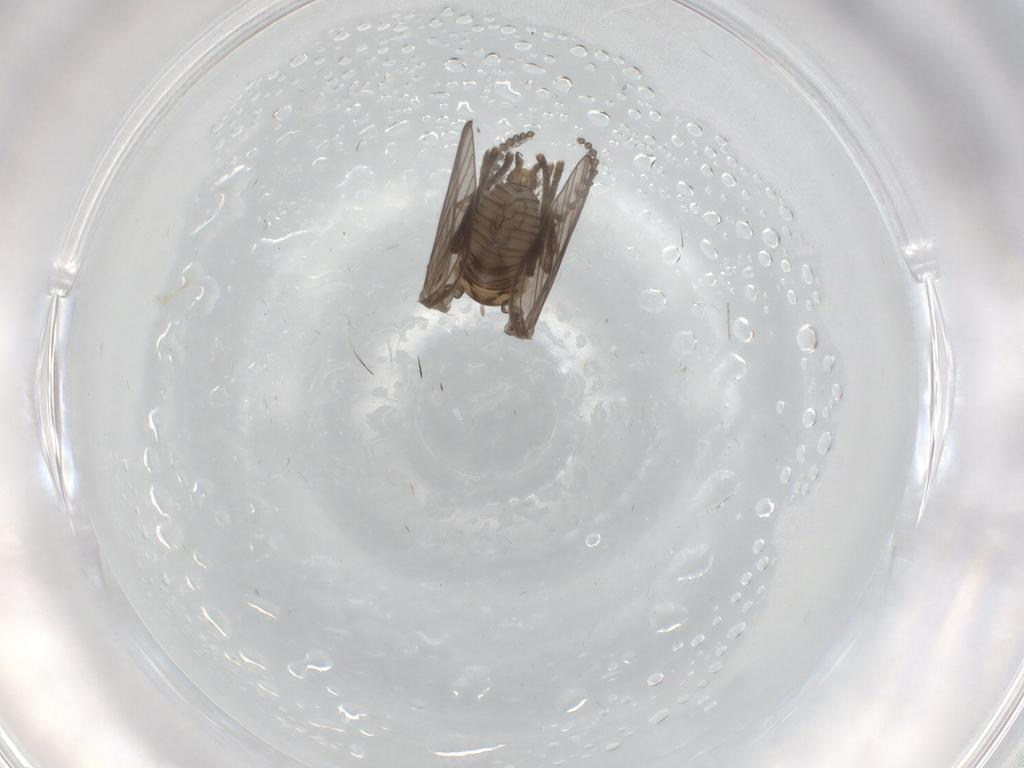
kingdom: Animalia
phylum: Arthropoda
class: Insecta
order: Diptera
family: Psychodidae
